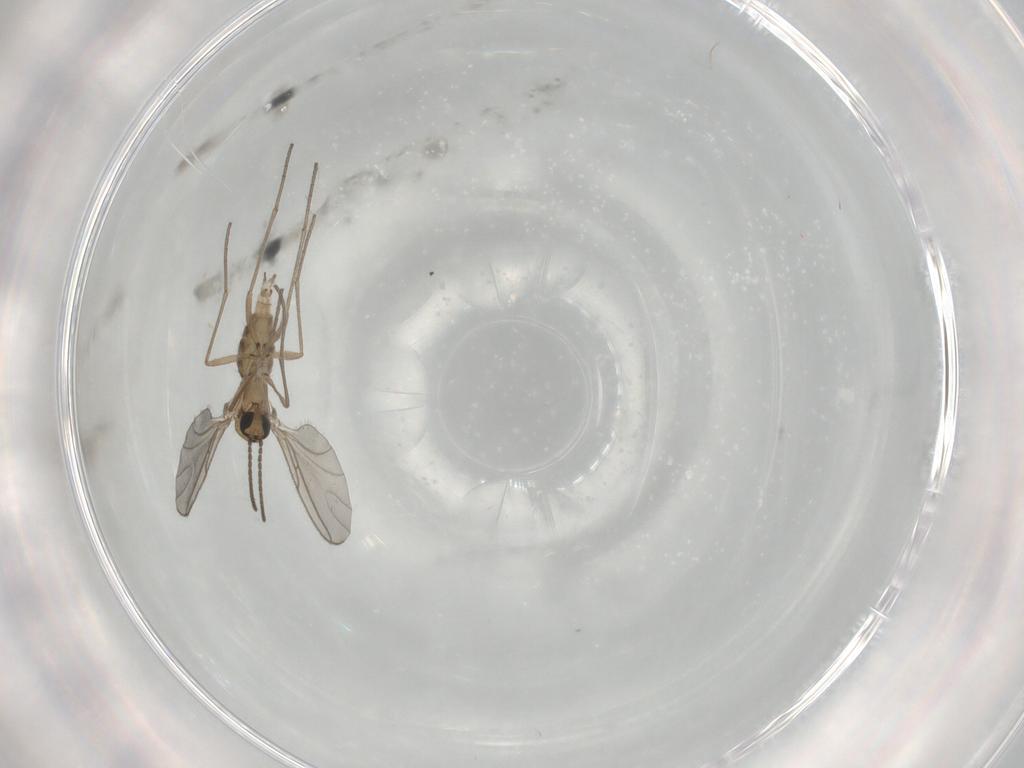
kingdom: Animalia
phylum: Arthropoda
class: Insecta
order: Diptera
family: Sciaridae
